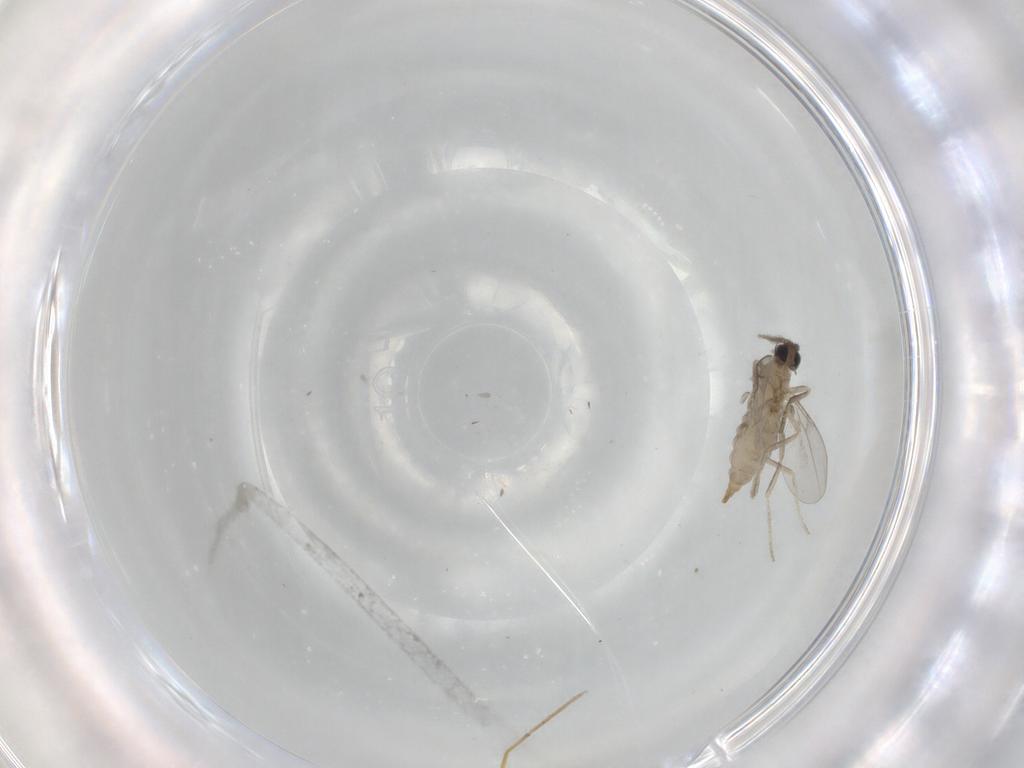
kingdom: Animalia
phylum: Arthropoda
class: Insecta
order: Diptera
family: Cecidomyiidae
